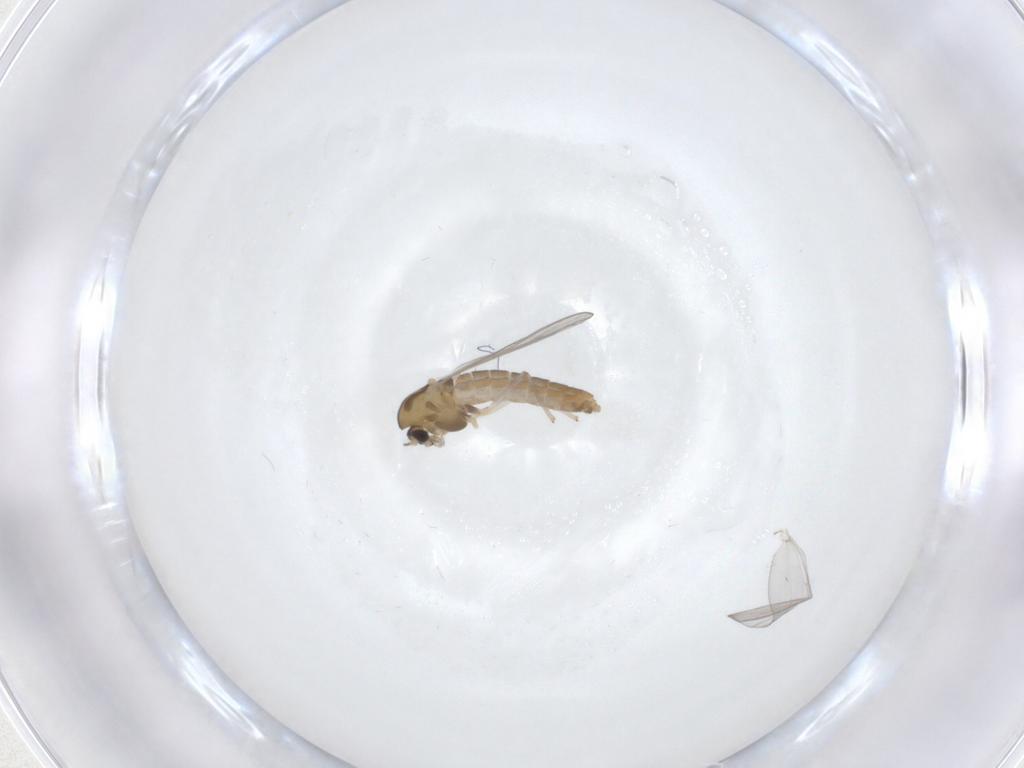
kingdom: Animalia
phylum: Arthropoda
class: Insecta
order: Diptera
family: Chironomidae
